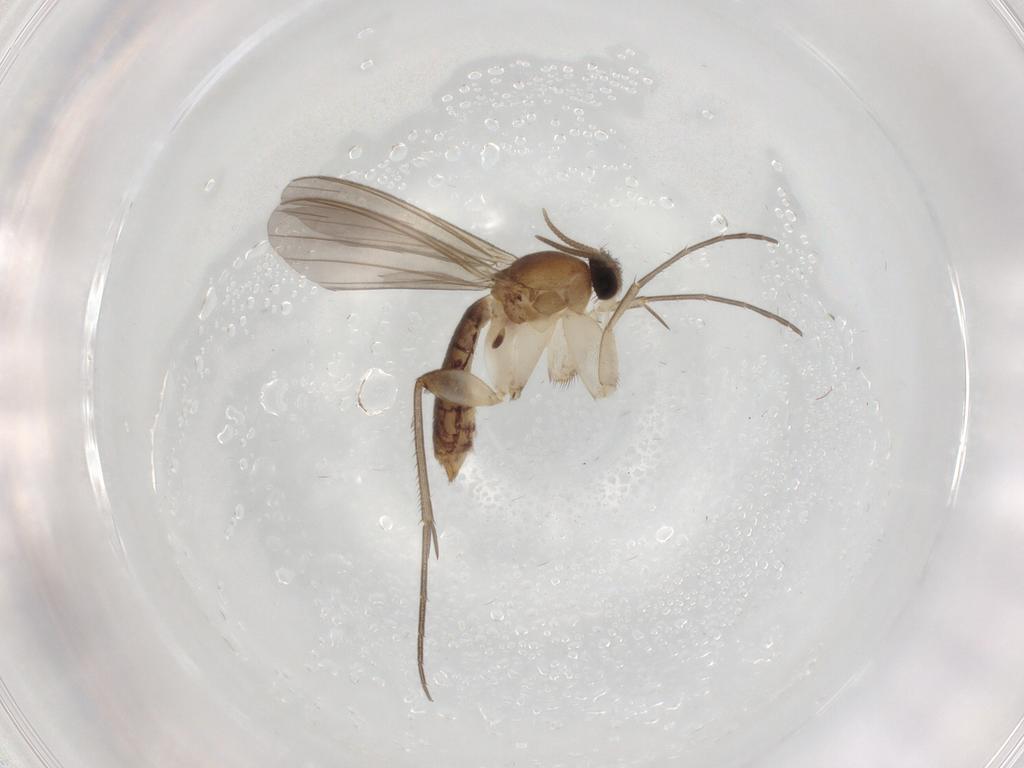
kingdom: Animalia
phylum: Arthropoda
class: Insecta
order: Diptera
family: Mycetophilidae
